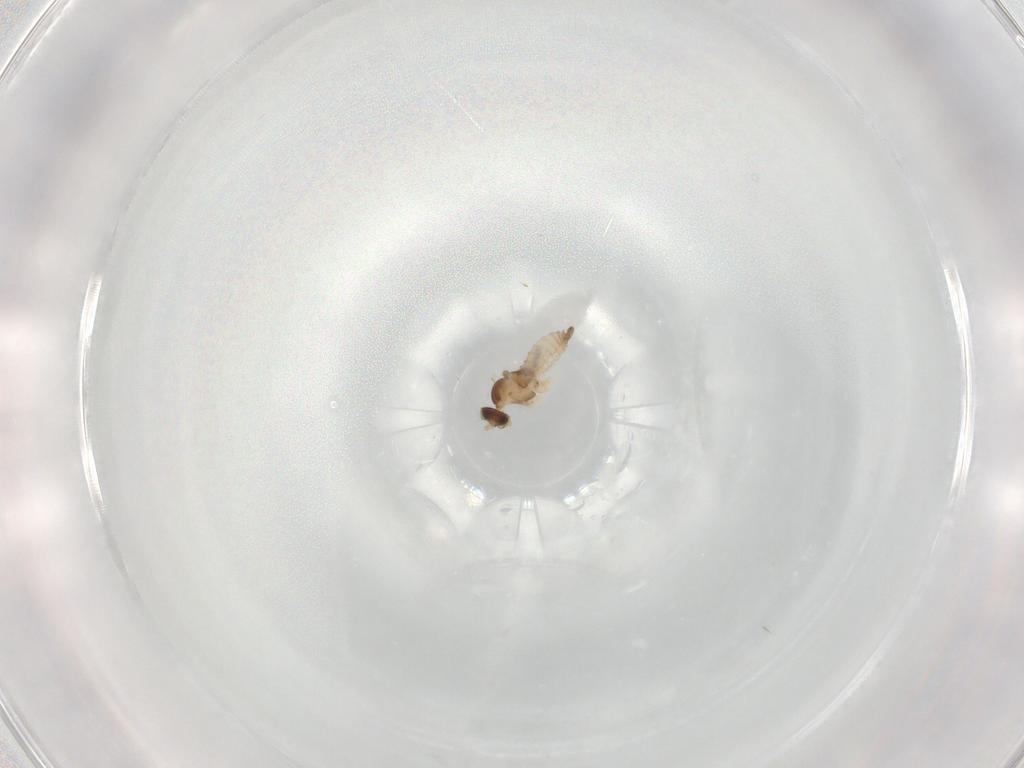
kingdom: Animalia
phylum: Arthropoda
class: Insecta
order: Diptera
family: Cecidomyiidae
